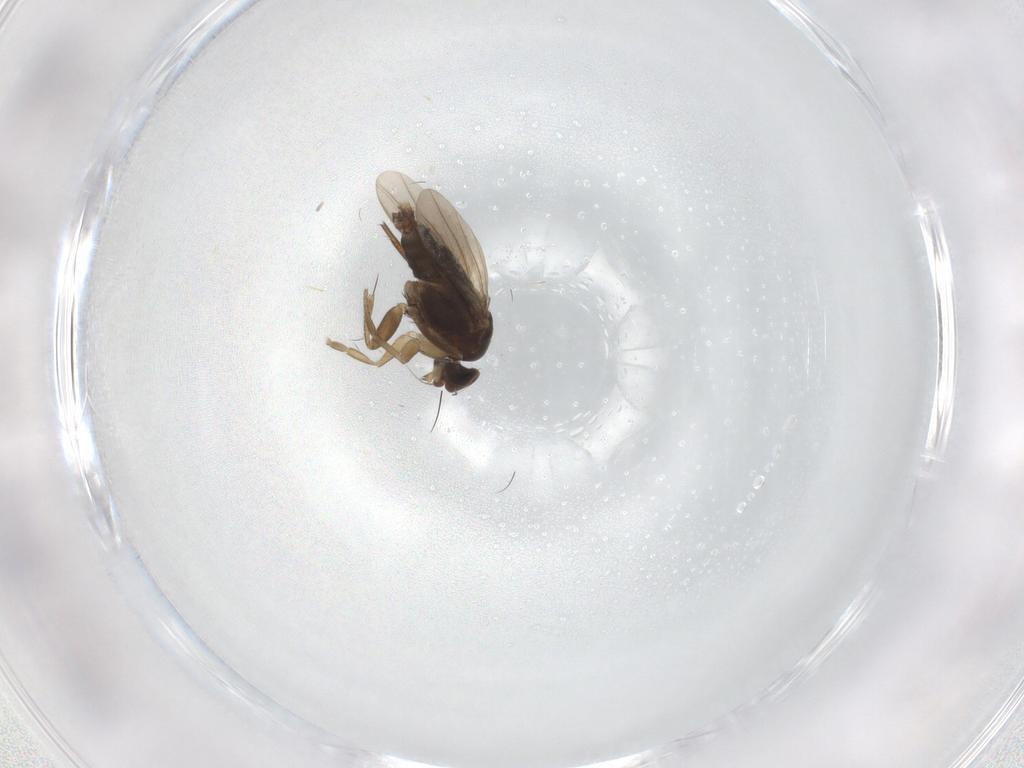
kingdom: Animalia
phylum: Arthropoda
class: Insecta
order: Diptera
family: Phoridae
